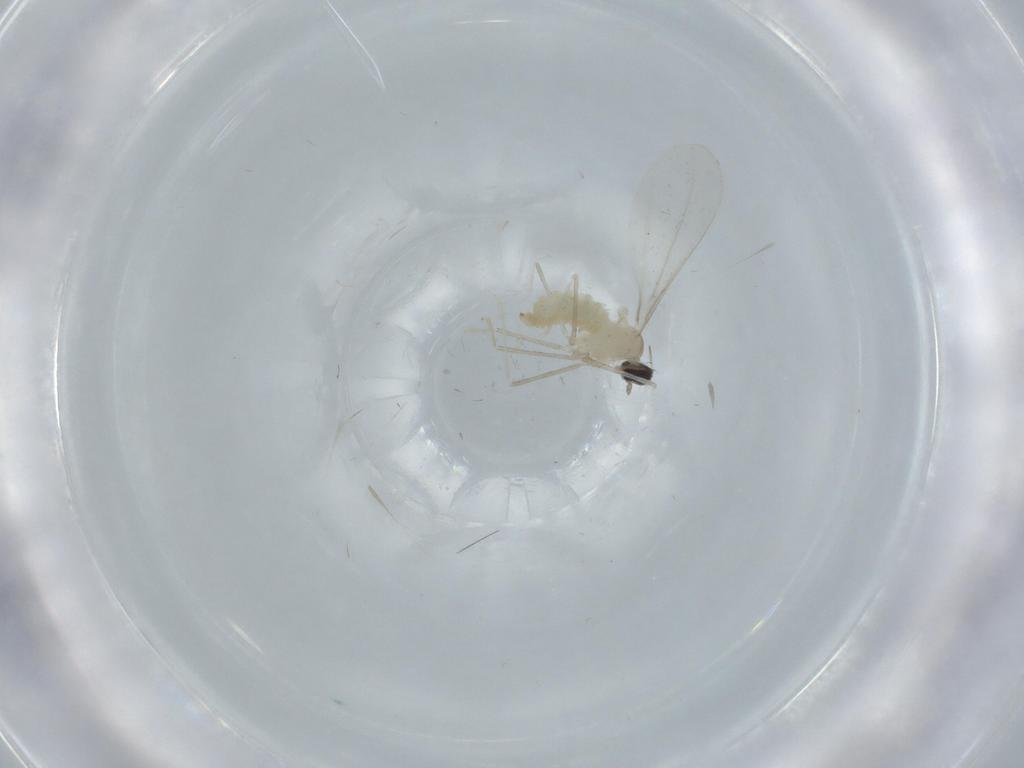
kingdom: Animalia
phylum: Arthropoda
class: Insecta
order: Diptera
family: Cecidomyiidae
